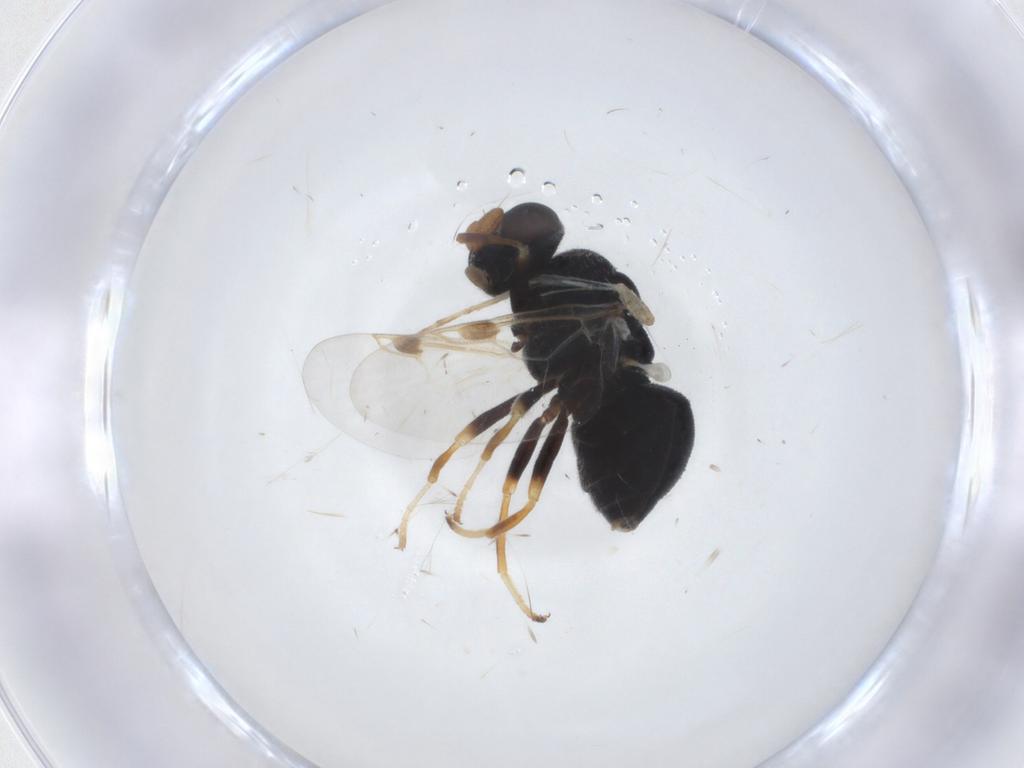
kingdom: Animalia
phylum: Arthropoda
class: Insecta
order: Diptera
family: Stratiomyidae
